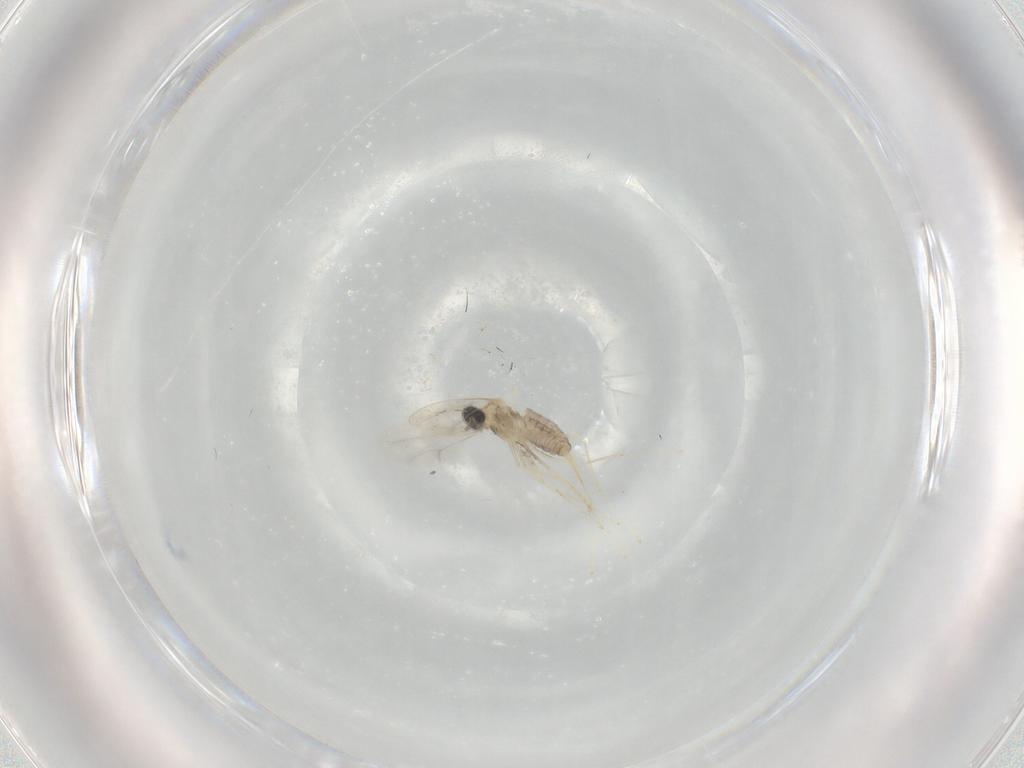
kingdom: Animalia
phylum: Arthropoda
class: Insecta
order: Diptera
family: Cecidomyiidae
